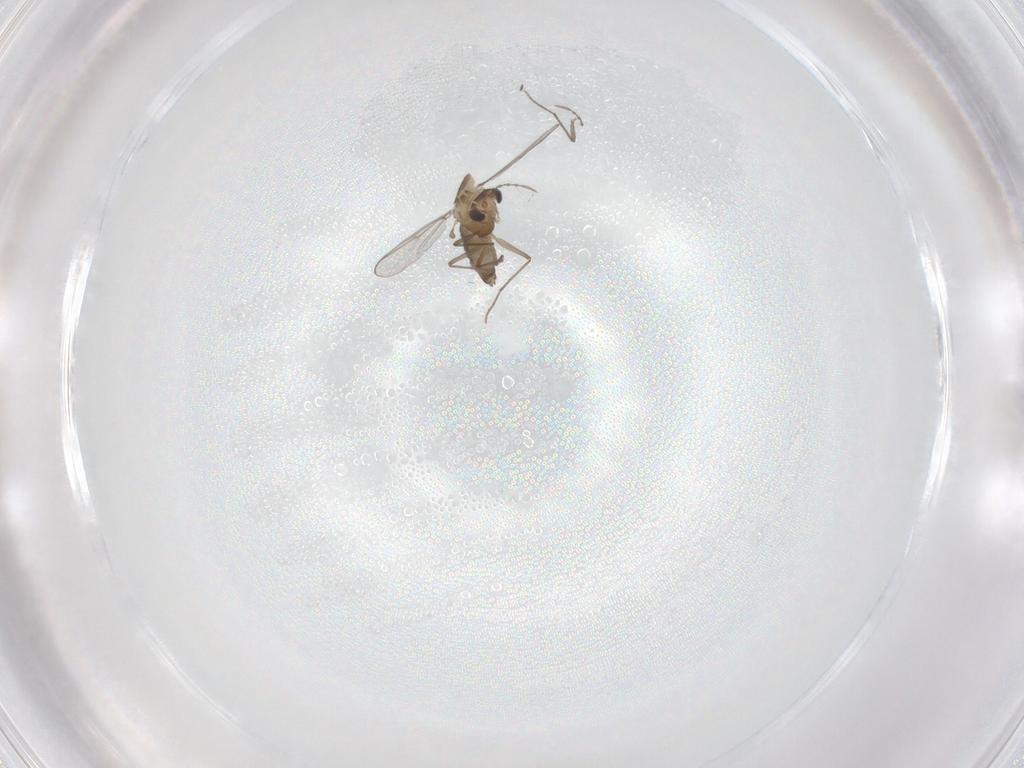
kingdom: Animalia
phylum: Arthropoda
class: Insecta
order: Diptera
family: Chironomidae
